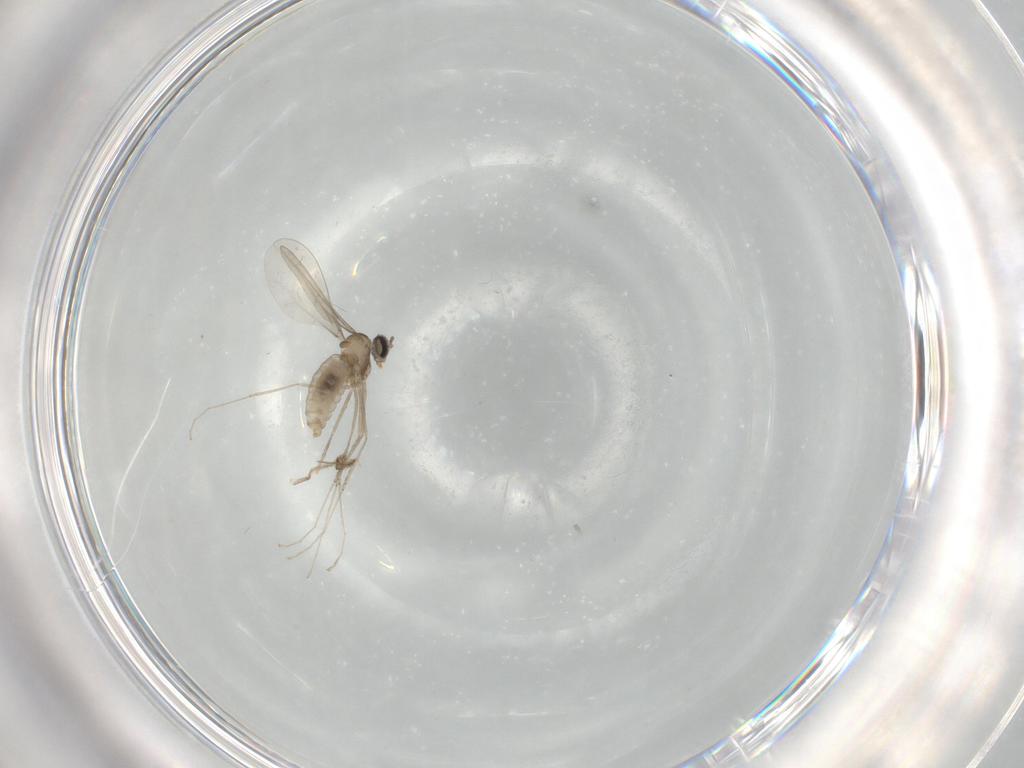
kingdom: Animalia
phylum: Arthropoda
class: Insecta
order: Diptera
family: Cecidomyiidae
